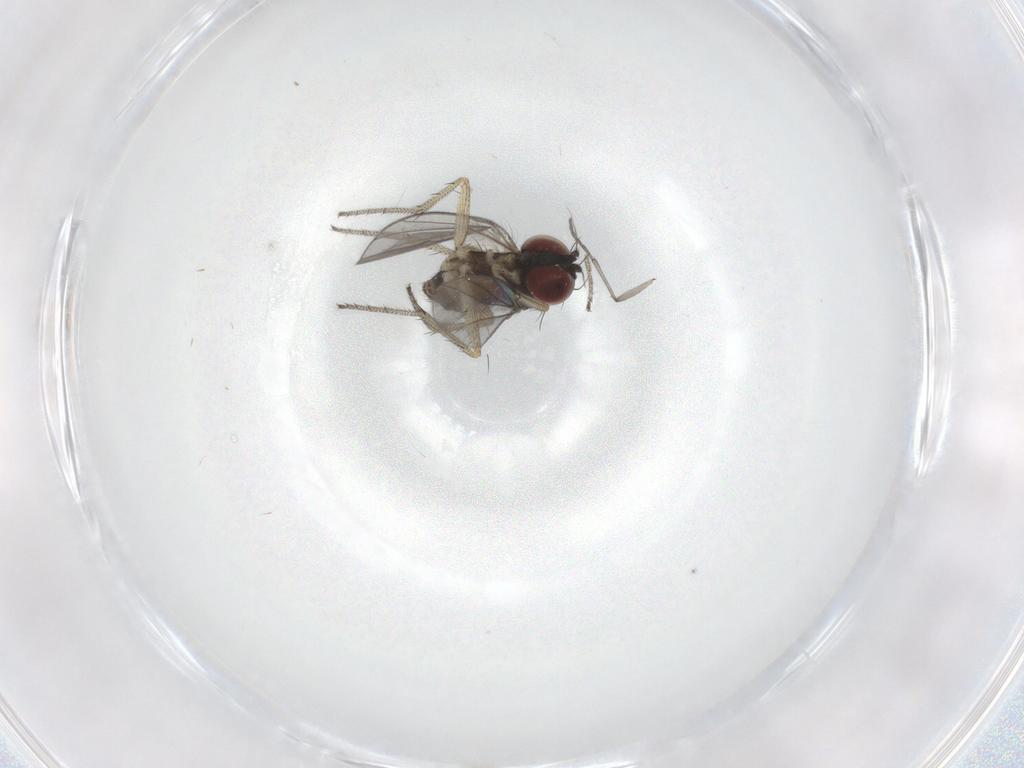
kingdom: Animalia
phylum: Arthropoda
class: Insecta
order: Diptera
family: Sciaridae
